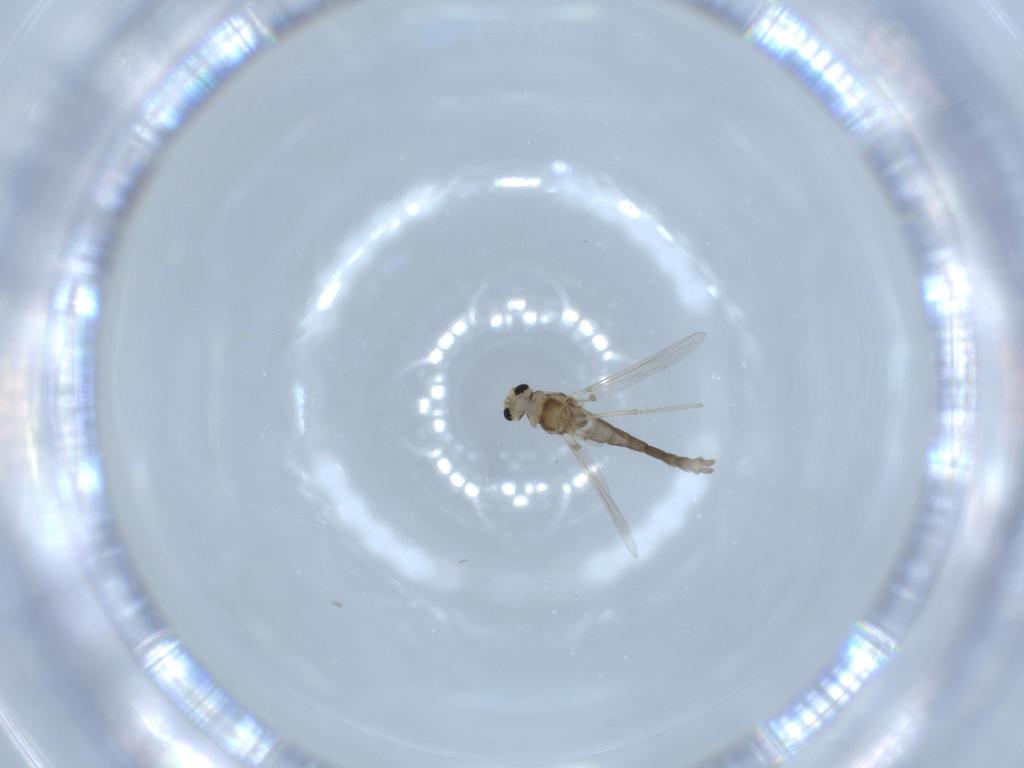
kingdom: Animalia
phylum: Arthropoda
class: Insecta
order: Diptera
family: Chironomidae
